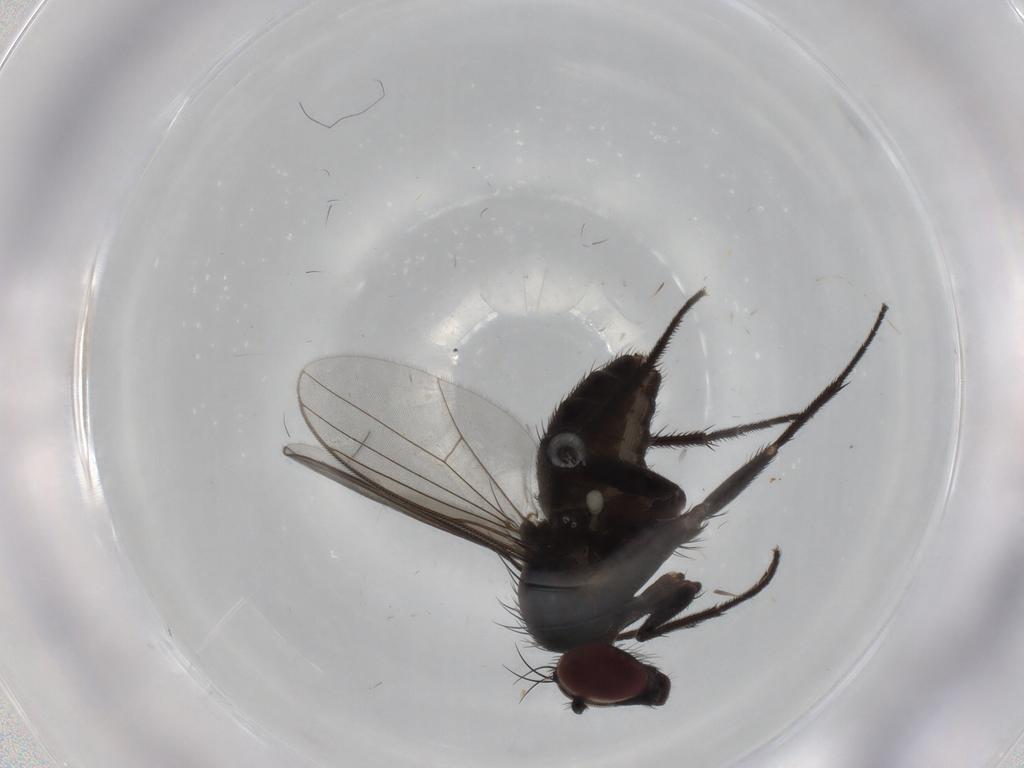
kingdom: Animalia
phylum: Arthropoda
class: Insecta
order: Diptera
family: Dolichopodidae
